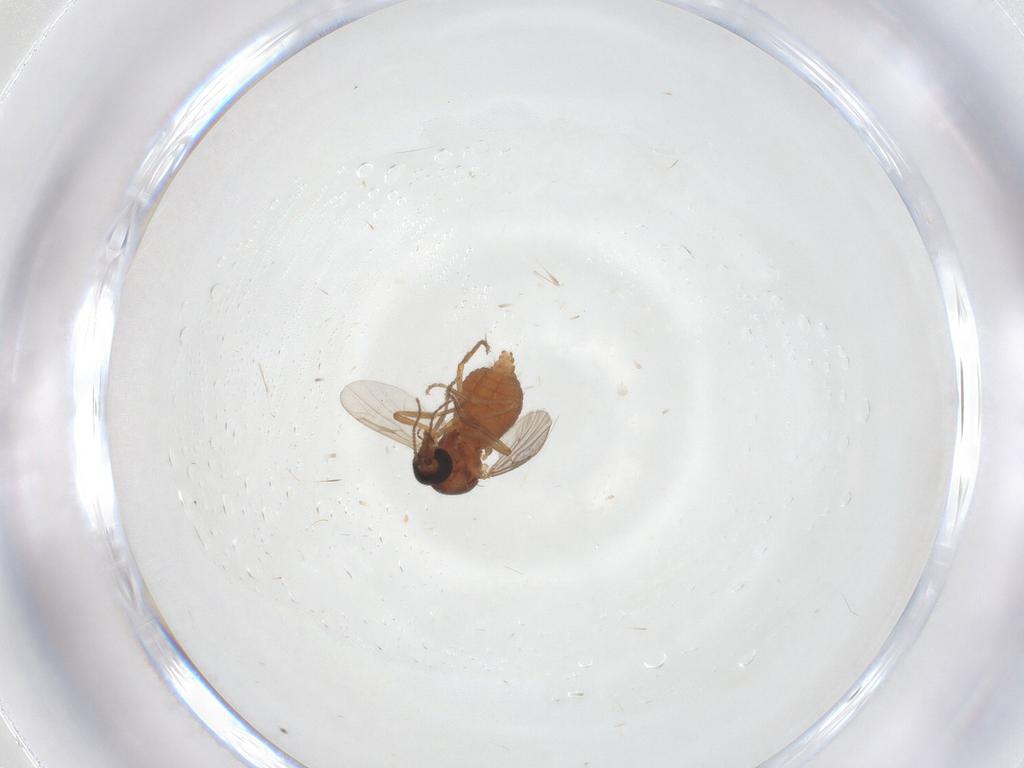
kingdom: Animalia
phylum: Arthropoda
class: Insecta
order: Diptera
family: Ceratopogonidae
